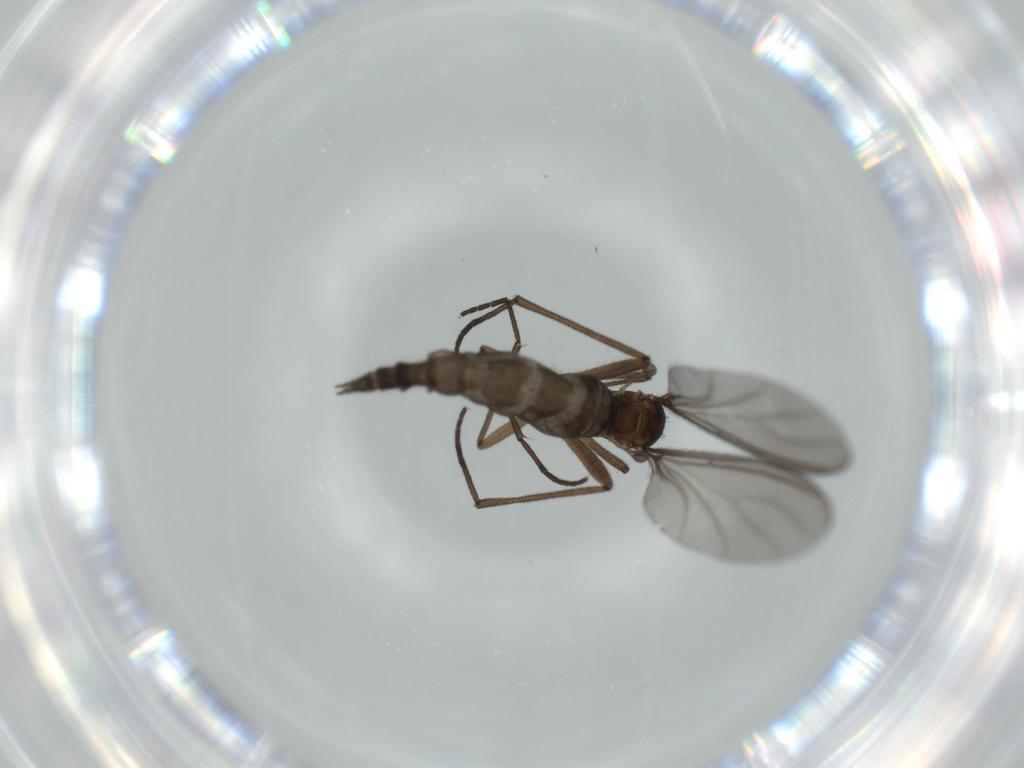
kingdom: Animalia
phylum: Arthropoda
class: Insecta
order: Diptera
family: Sciaridae
